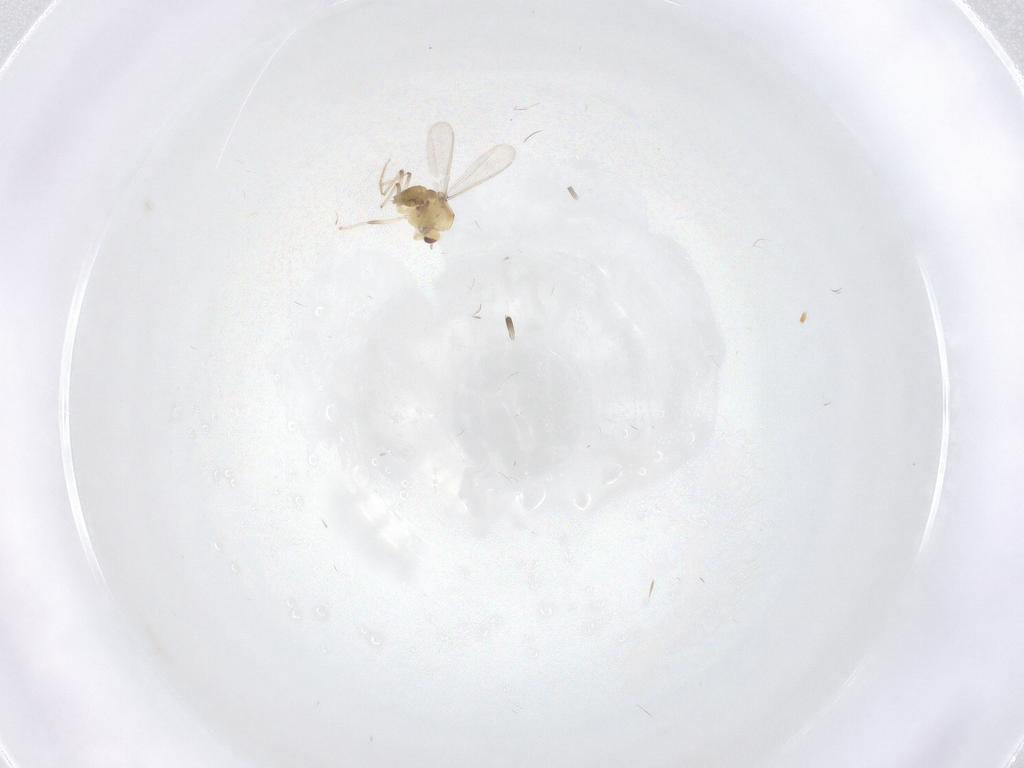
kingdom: Animalia
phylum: Arthropoda
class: Insecta
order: Diptera
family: Chironomidae
